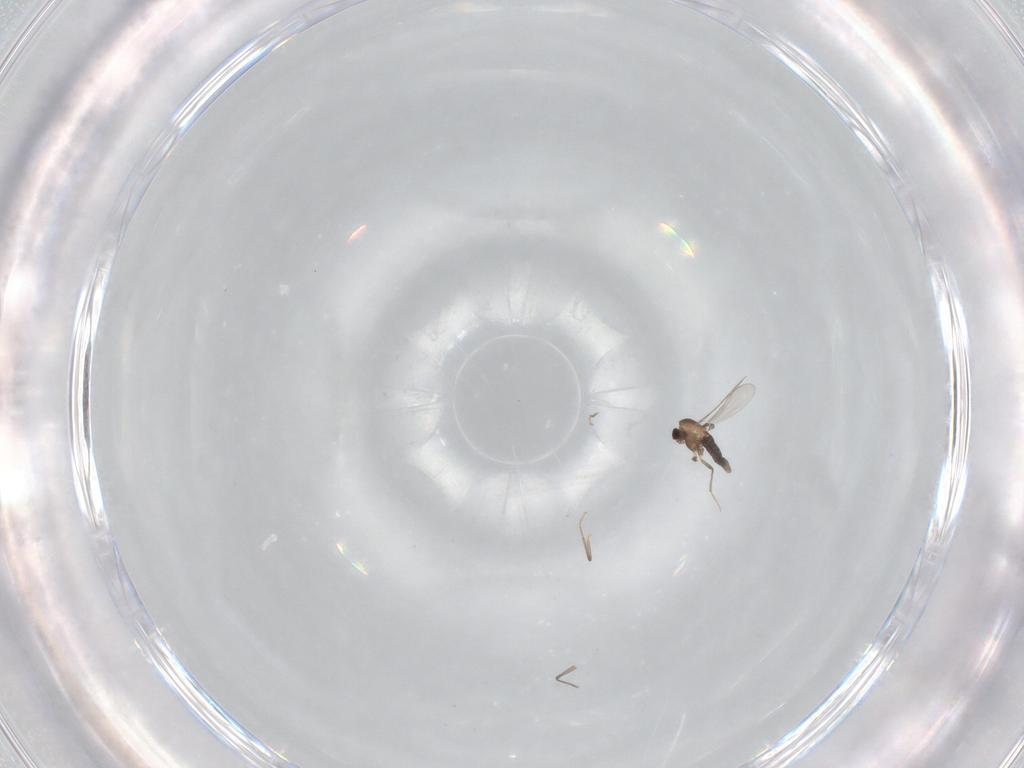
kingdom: Animalia
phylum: Arthropoda
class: Insecta
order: Diptera
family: Chironomidae
